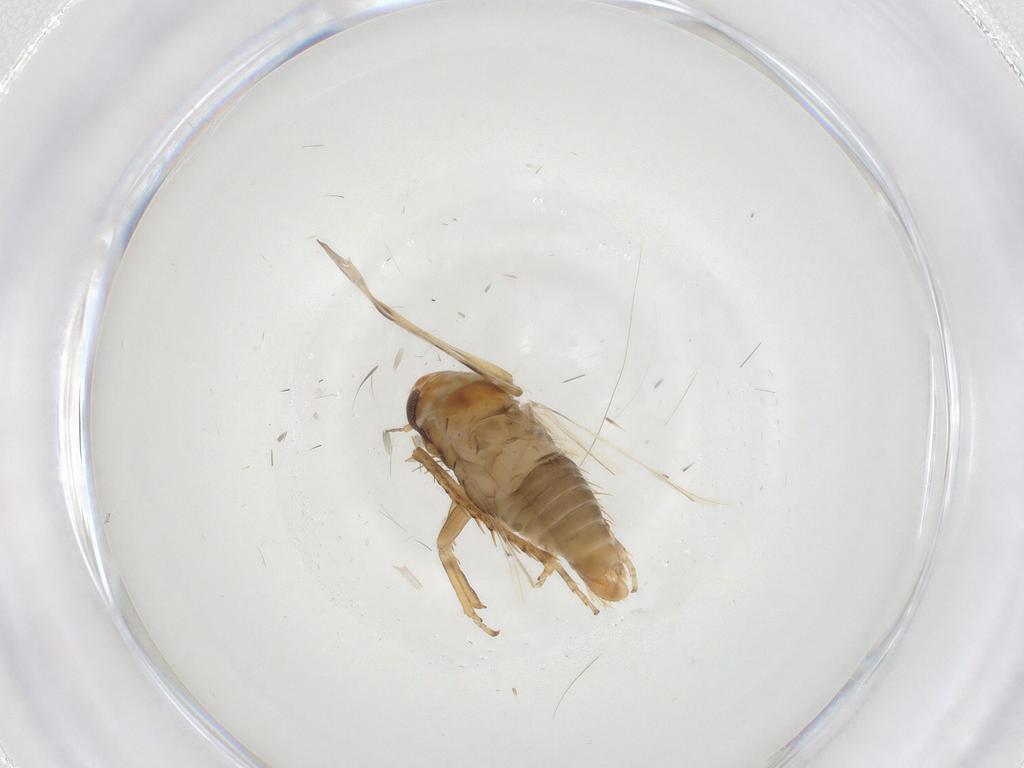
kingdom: Animalia
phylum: Arthropoda
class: Insecta
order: Hemiptera
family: Cicadellidae
